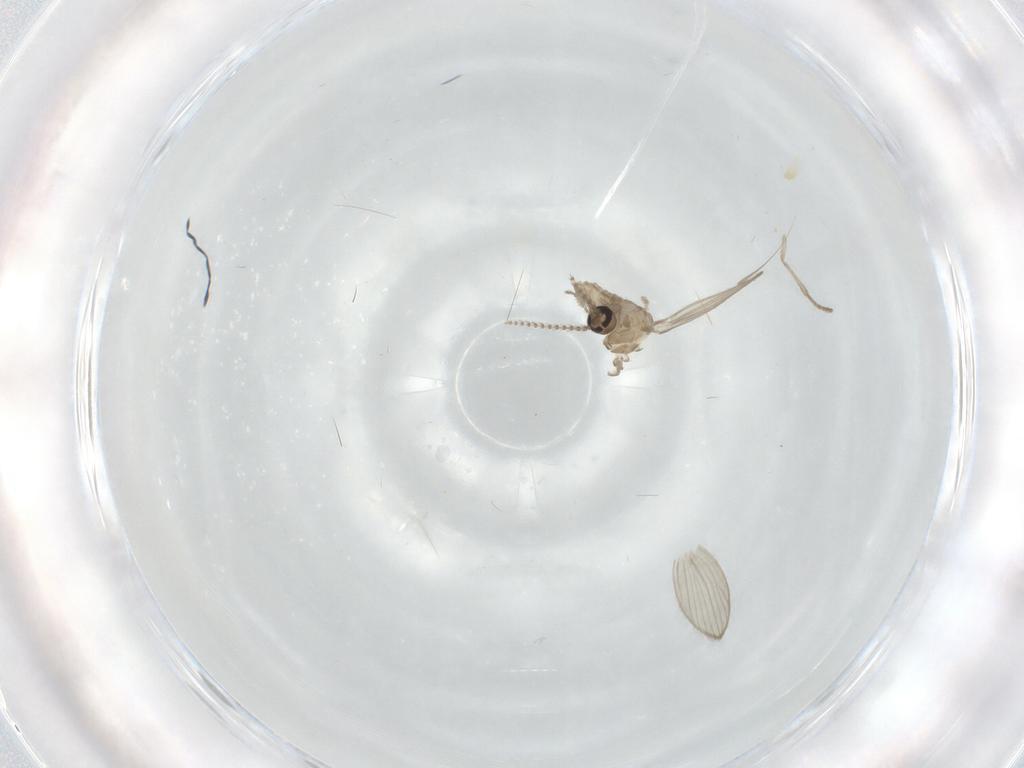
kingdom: Animalia
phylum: Arthropoda
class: Insecta
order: Diptera
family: Psychodidae
